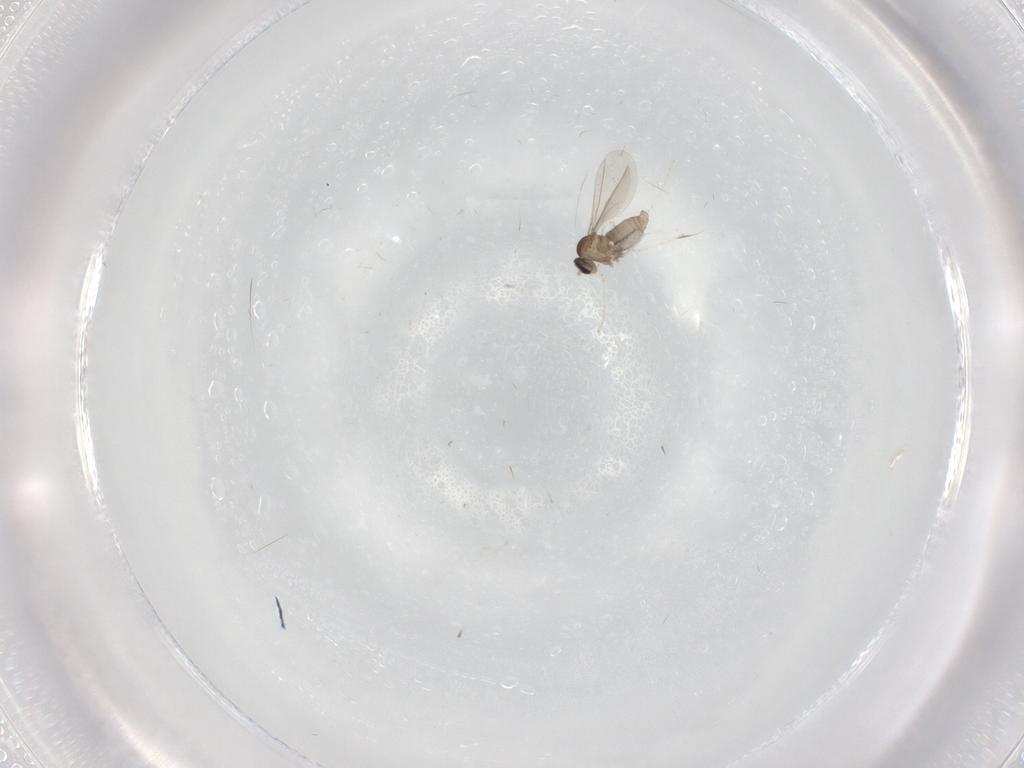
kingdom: Animalia
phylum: Arthropoda
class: Insecta
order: Diptera
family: Cecidomyiidae
